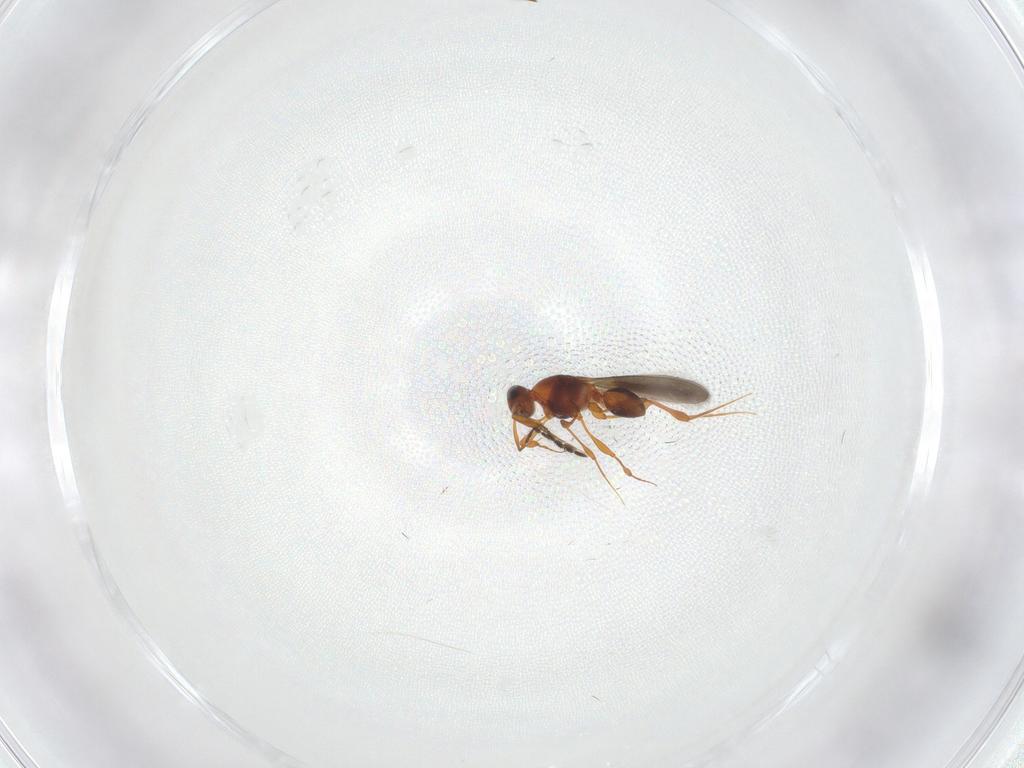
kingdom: Animalia
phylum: Arthropoda
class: Insecta
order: Hymenoptera
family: Platygastridae
